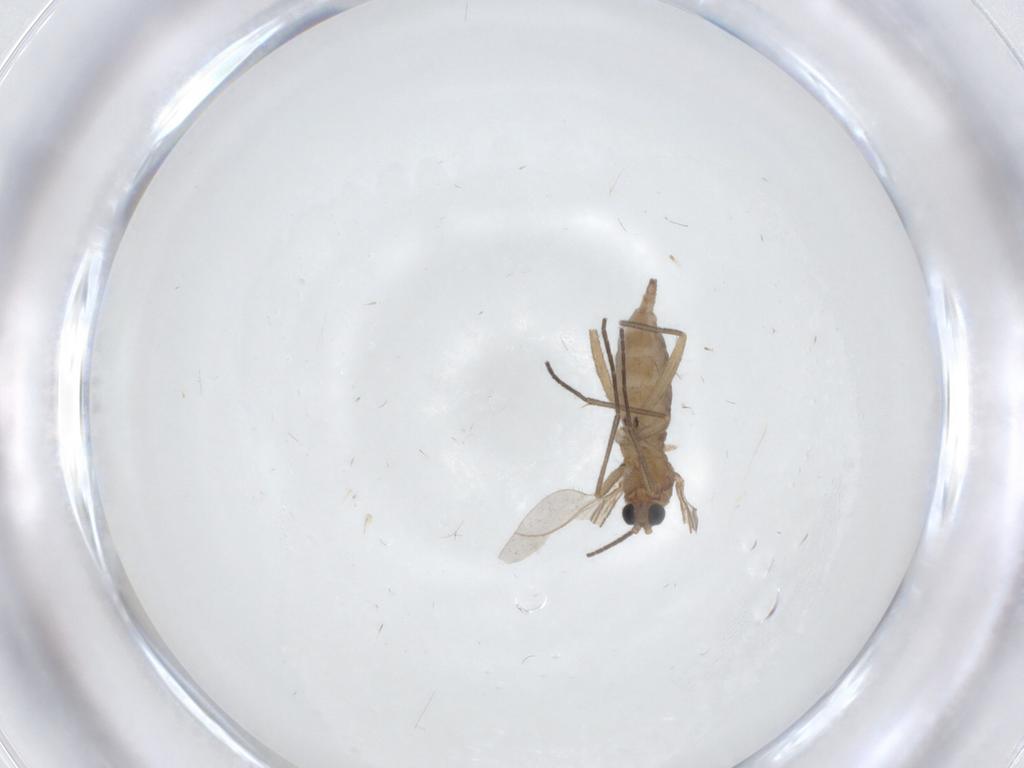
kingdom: Animalia
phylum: Arthropoda
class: Insecta
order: Diptera
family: Sciaridae
